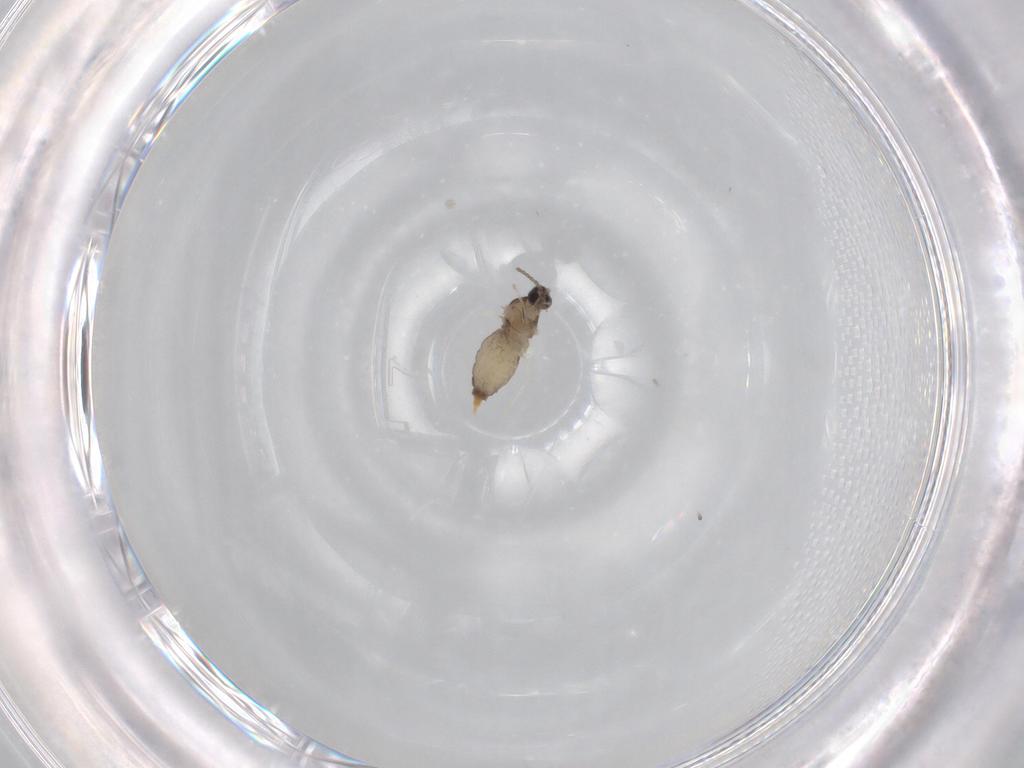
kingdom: Animalia
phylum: Arthropoda
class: Insecta
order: Diptera
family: Cecidomyiidae
